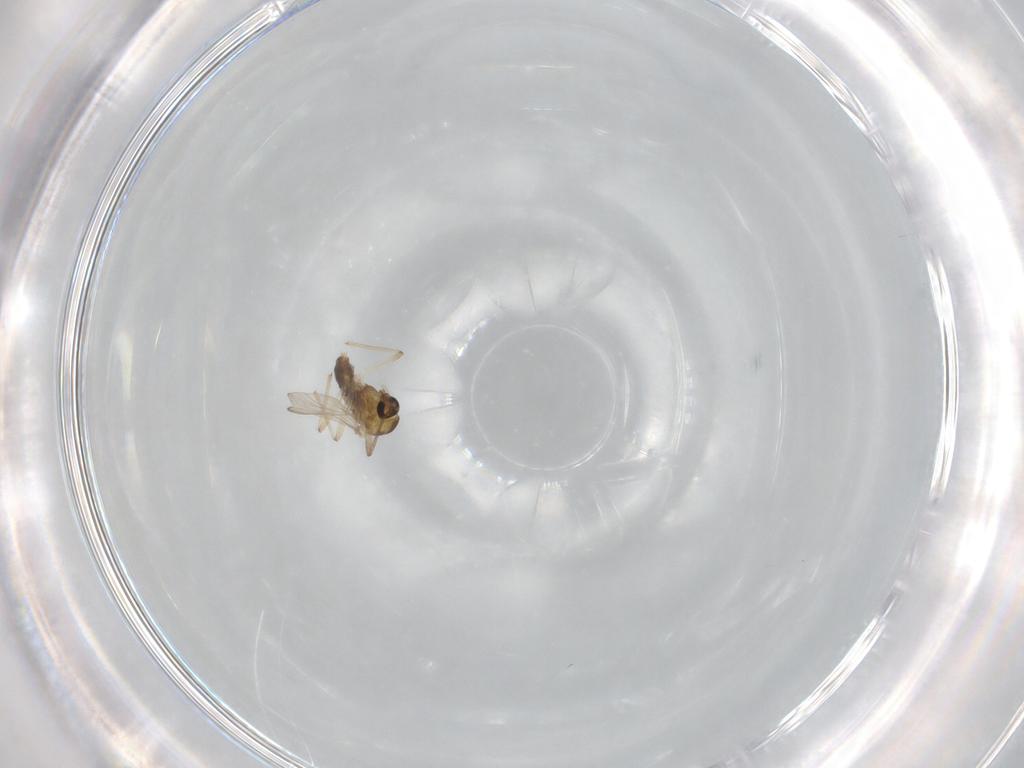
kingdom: Animalia
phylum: Arthropoda
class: Insecta
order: Diptera
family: Chironomidae
